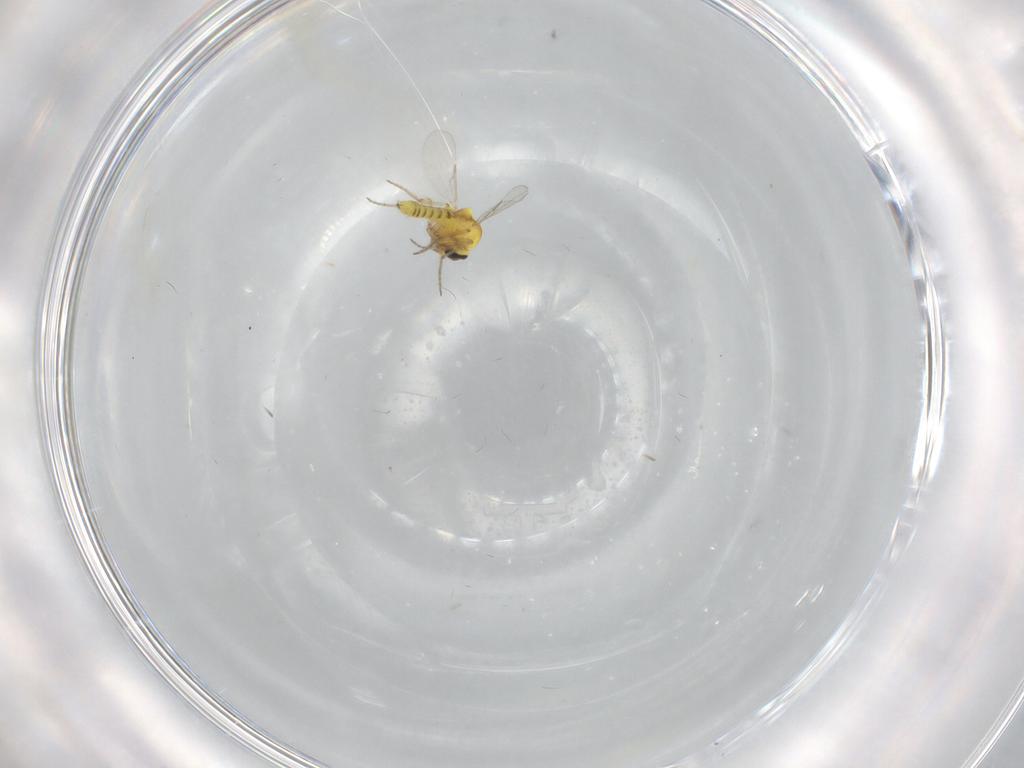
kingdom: Animalia
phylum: Arthropoda
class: Insecta
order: Diptera
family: Ceratopogonidae
